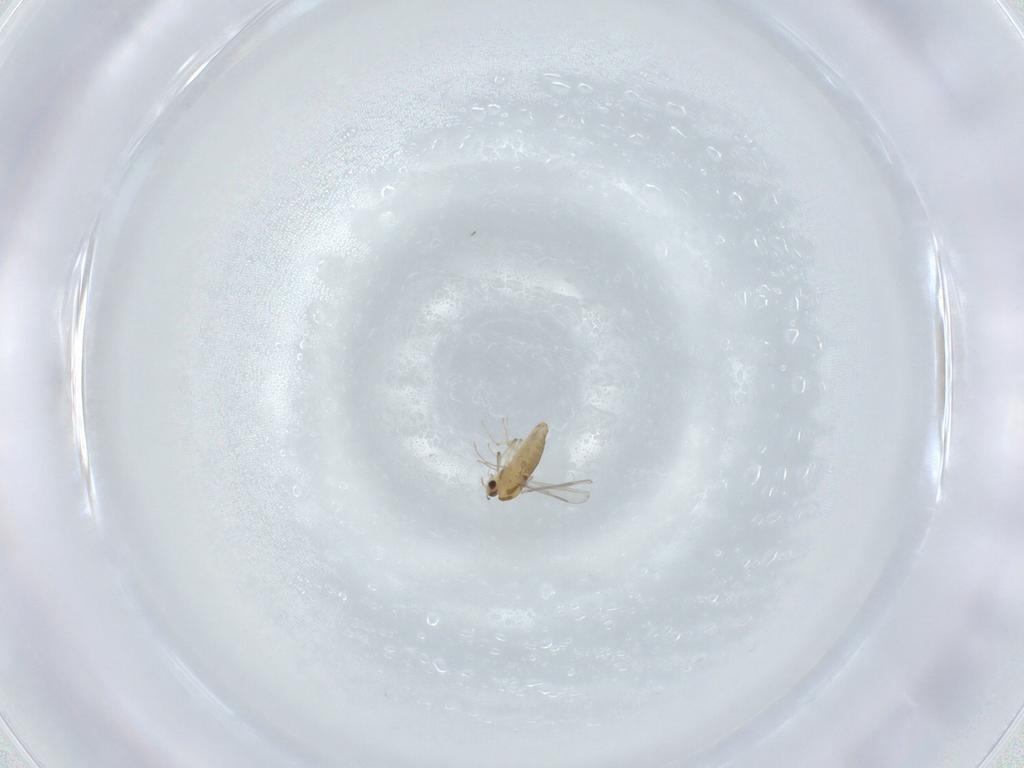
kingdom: Animalia
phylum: Arthropoda
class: Insecta
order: Diptera
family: Chironomidae
